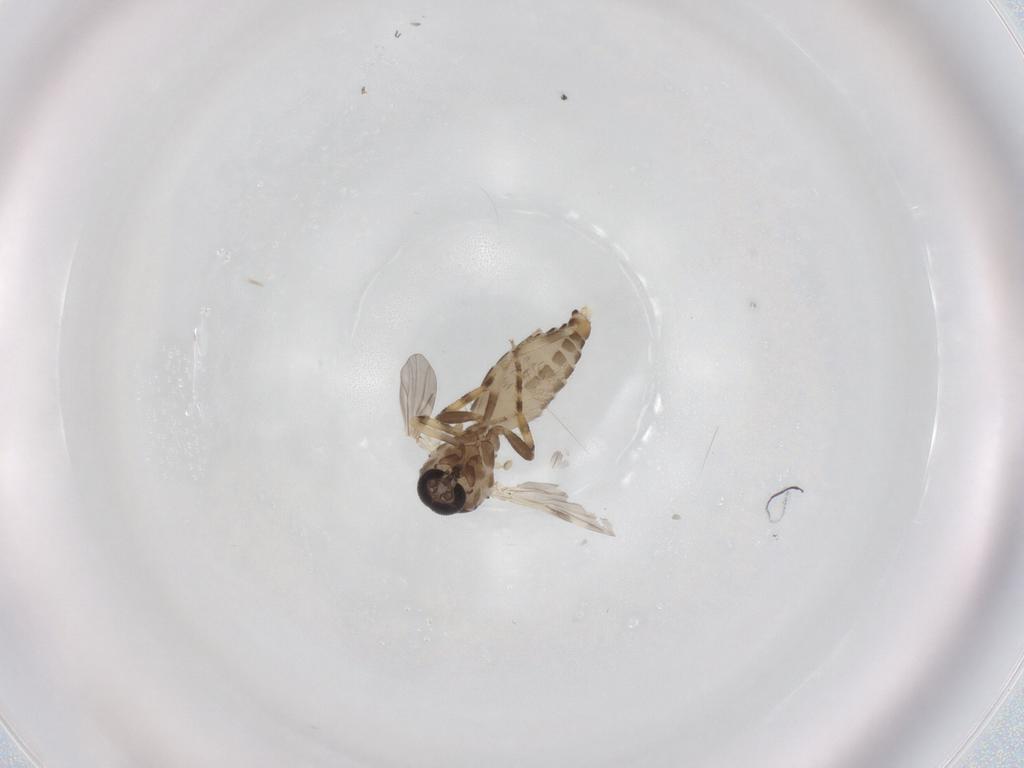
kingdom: Animalia
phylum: Arthropoda
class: Insecta
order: Diptera
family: Ceratopogonidae
